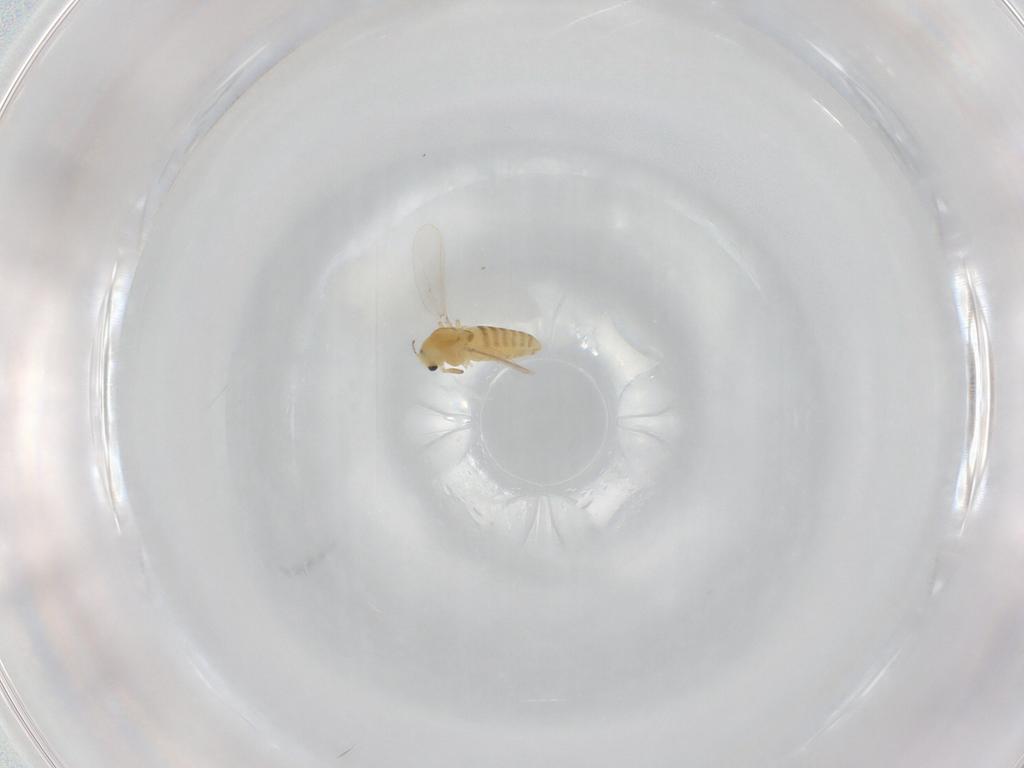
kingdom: Animalia
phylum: Arthropoda
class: Insecta
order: Diptera
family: Chironomidae
